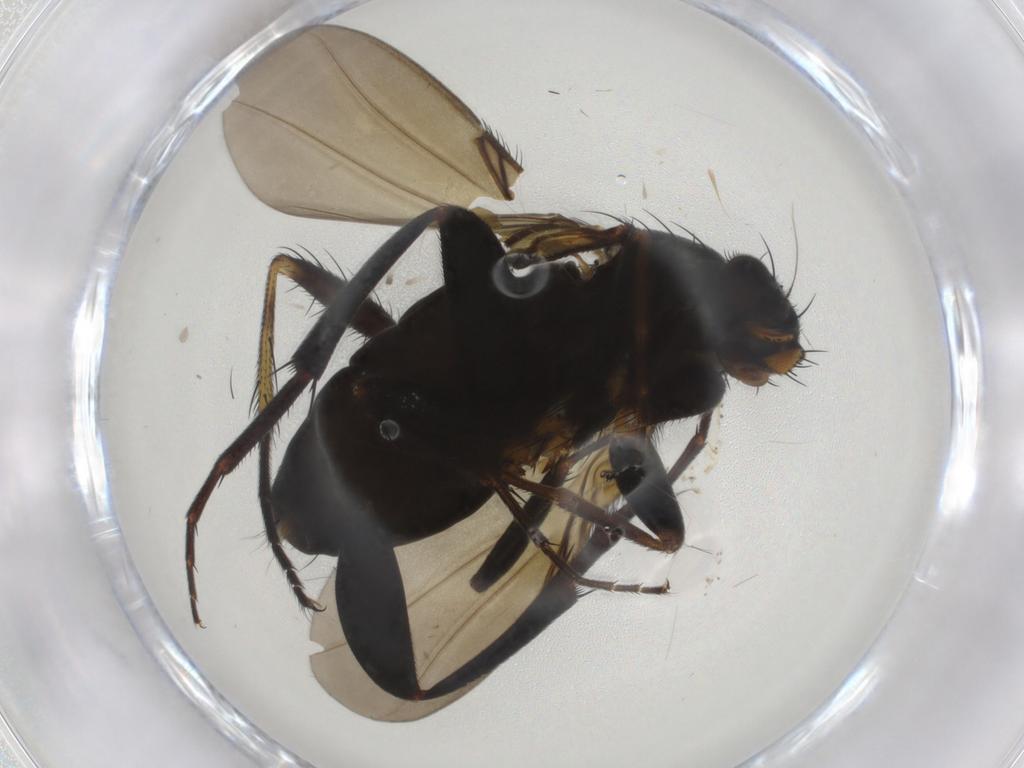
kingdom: Animalia
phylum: Arthropoda
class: Insecta
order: Diptera
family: Phoridae
